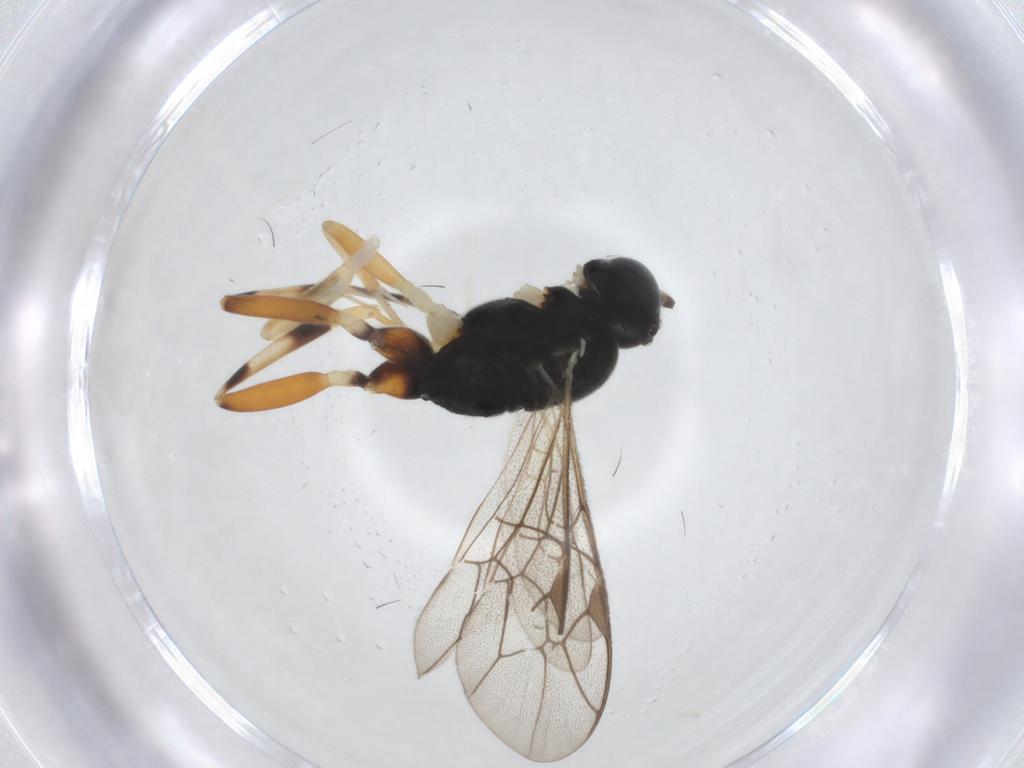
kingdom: Animalia
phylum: Arthropoda
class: Insecta
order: Hymenoptera
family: Ichneumonidae
